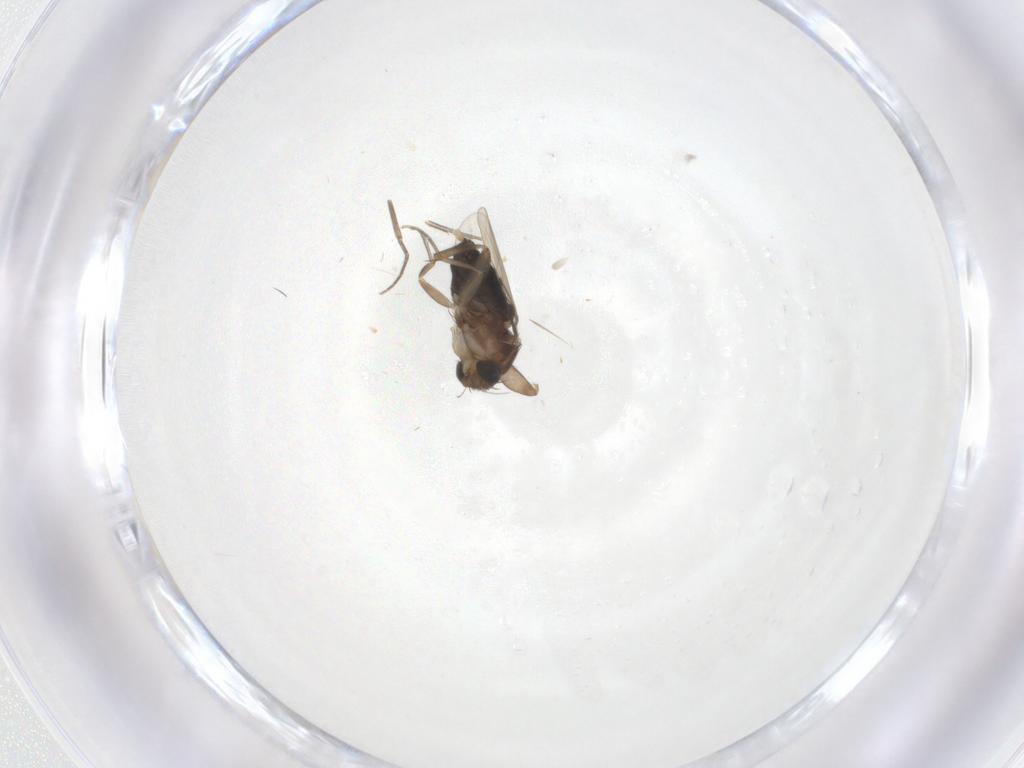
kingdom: Animalia
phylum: Arthropoda
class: Insecta
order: Diptera
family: Phoridae
